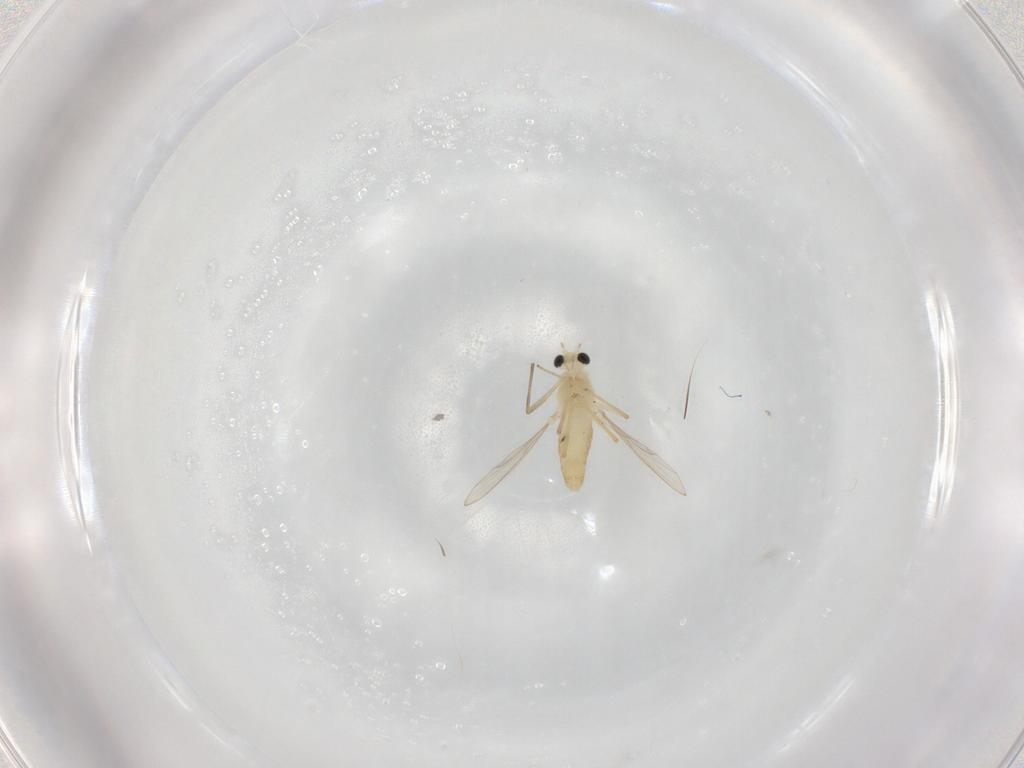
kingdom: Animalia
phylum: Arthropoda
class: Insecta
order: Diptera
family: Chironomidae
